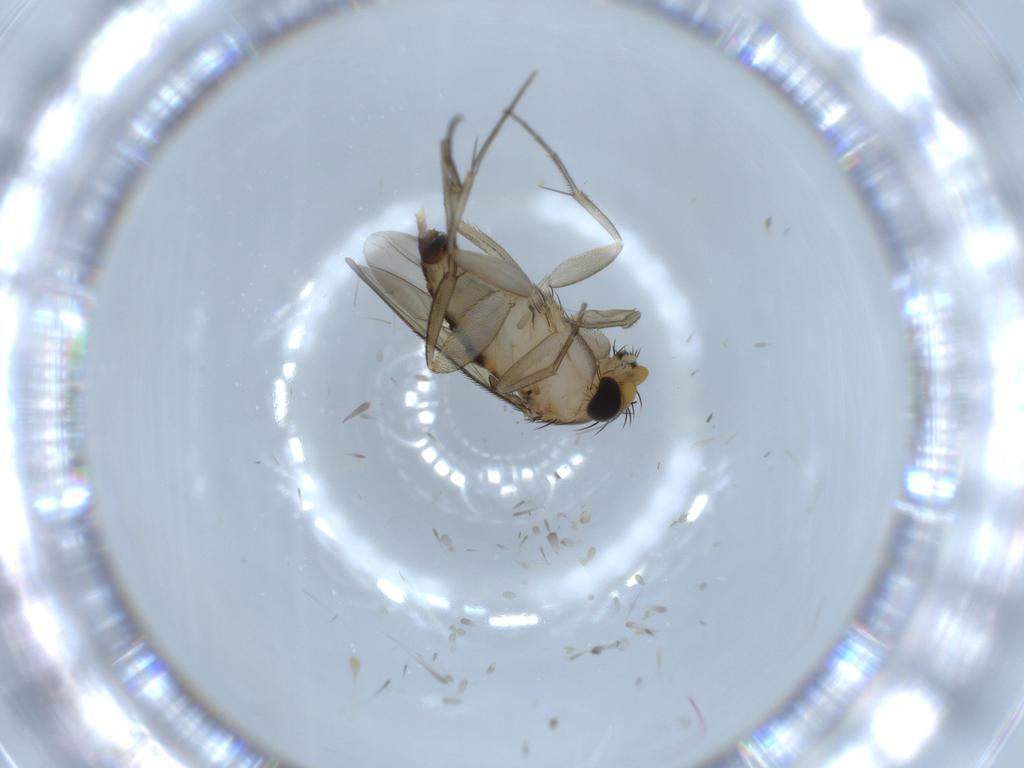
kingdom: Animalia
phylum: Arthropoda
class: Insecta
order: Diptera
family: Phoridae
